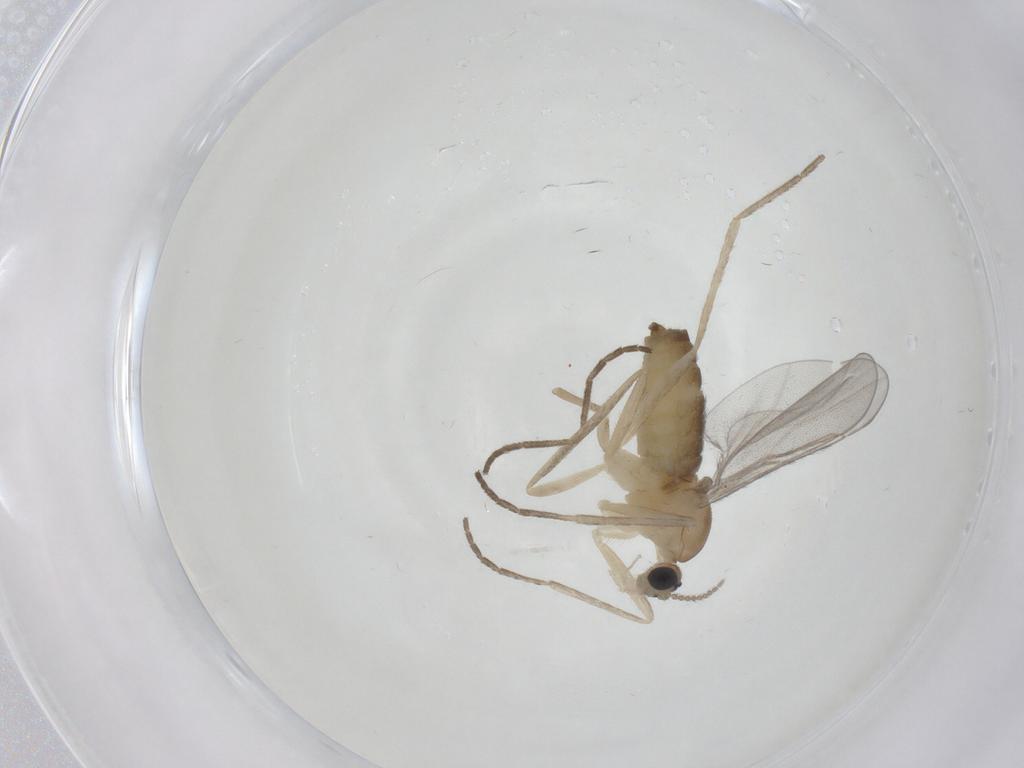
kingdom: Animalia
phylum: Arthropoda
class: Insecta
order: Diptera
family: Cecidomyiidae
